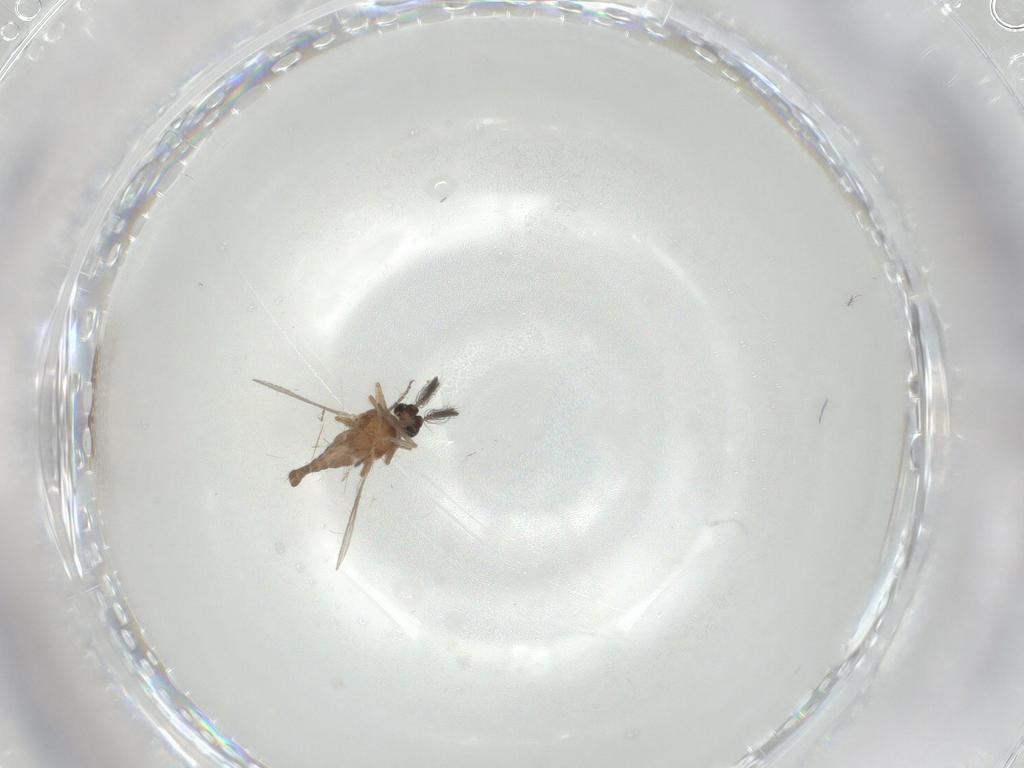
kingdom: Animalia
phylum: Arthropoda
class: Insecta
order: Diptera
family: Ceratopogonidae
